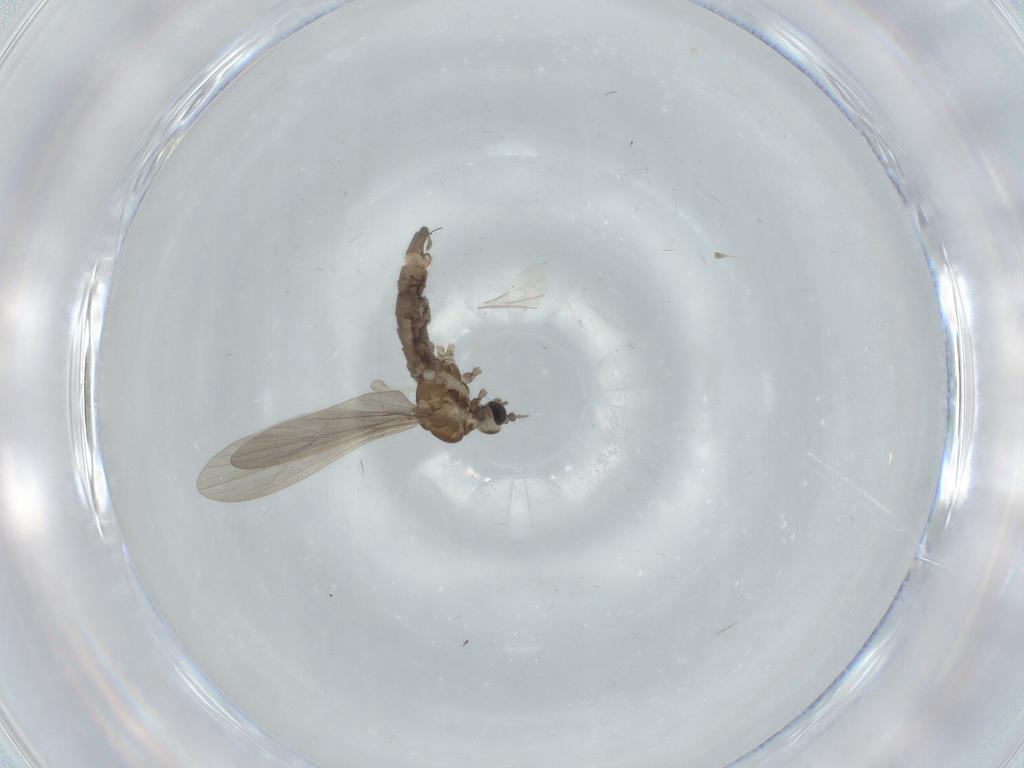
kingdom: Animalia
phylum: Arthropoda
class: Insecta
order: Diptera
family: Limoniidae
